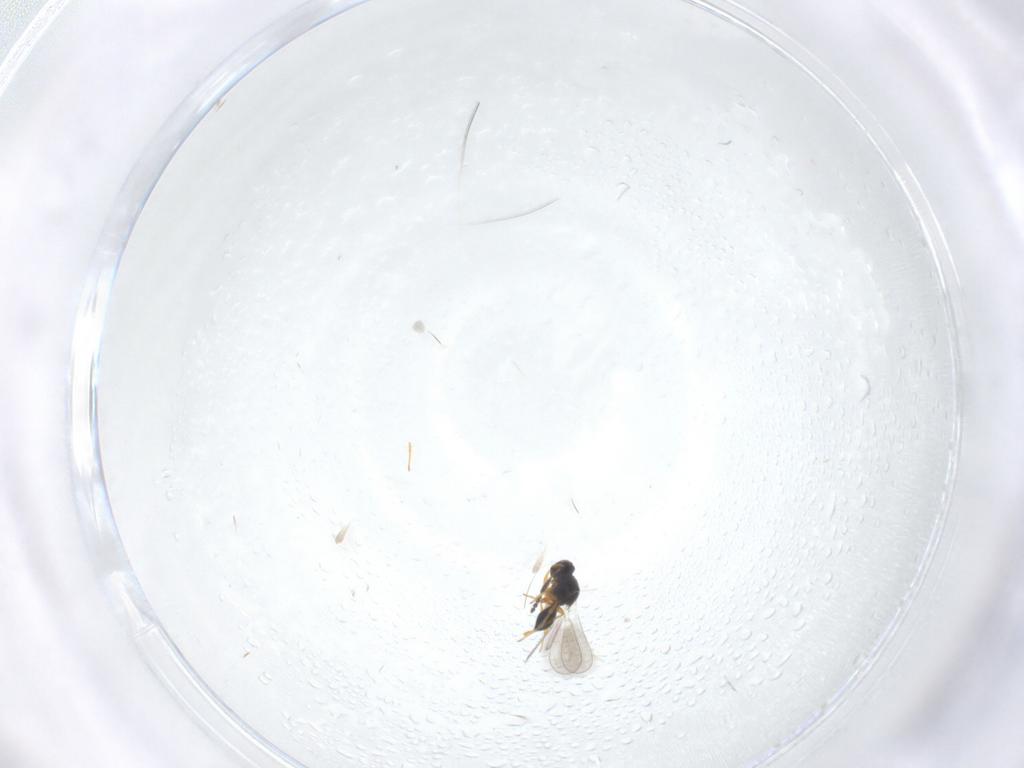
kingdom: Animalia
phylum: Arthropoda
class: Insecta
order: Hymenoptera
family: Platygastridae
